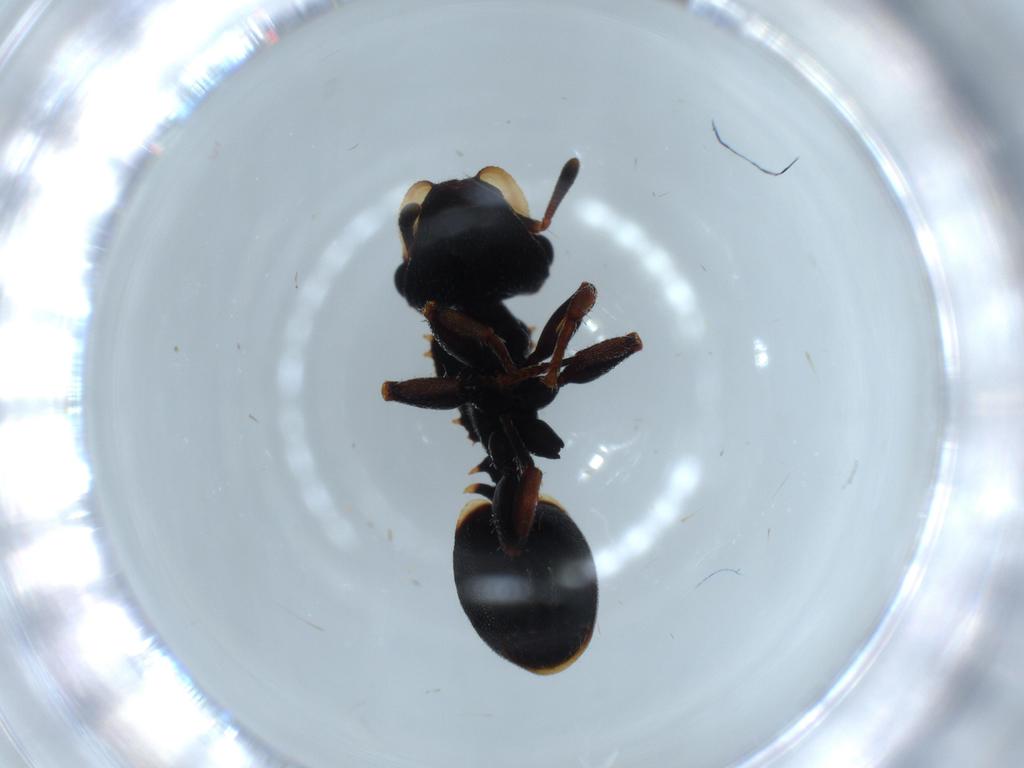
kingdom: Animalia
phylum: Arthropoda
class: Insecta
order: Hymenoptera
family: Formicidae
